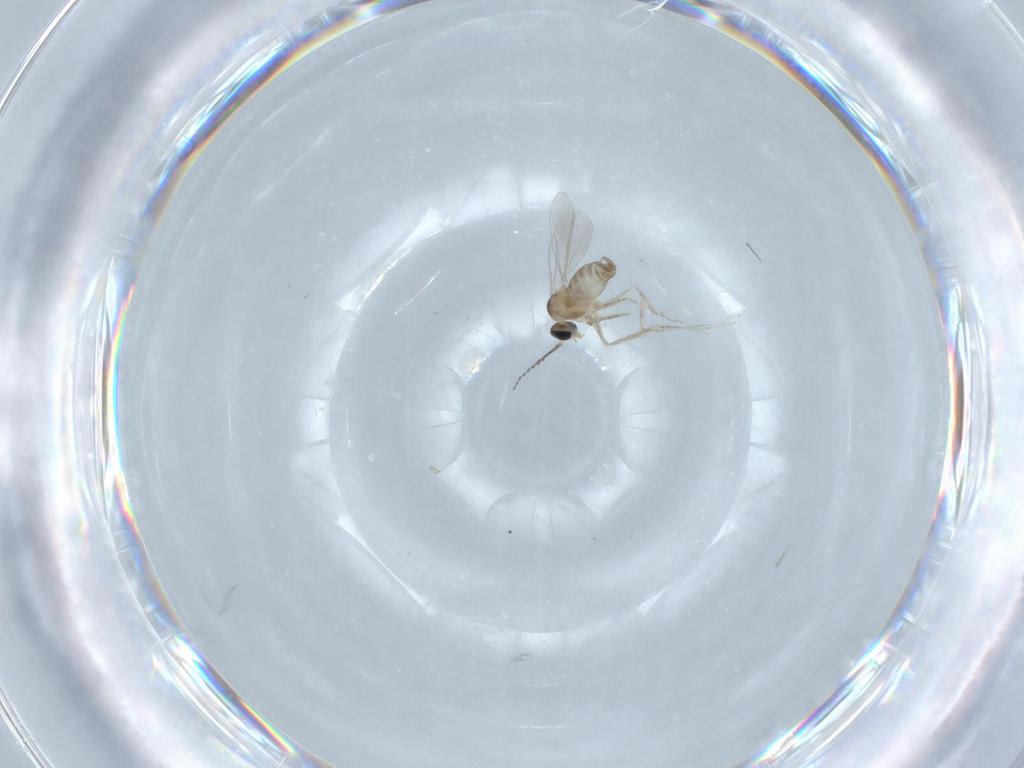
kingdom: Animalia
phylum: Arthropoda
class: Insecta
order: Diptera
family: Cecidomyiidae
